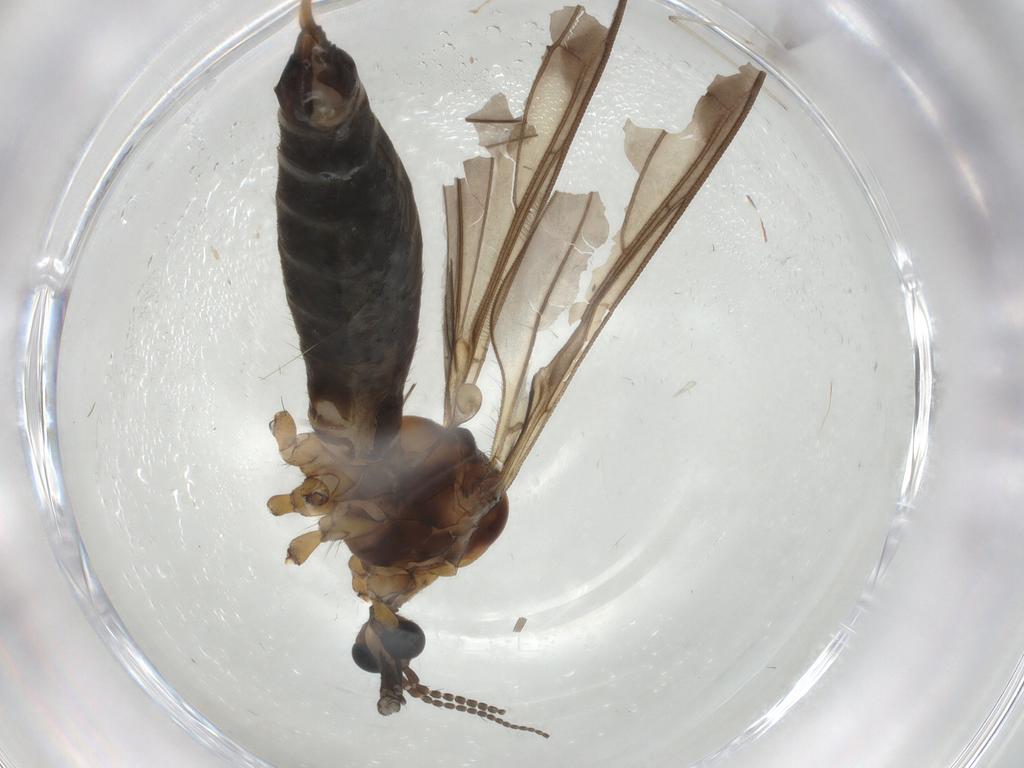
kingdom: Animalia
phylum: Arthropoda
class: Insecta
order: Diptera
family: Limoniidae
